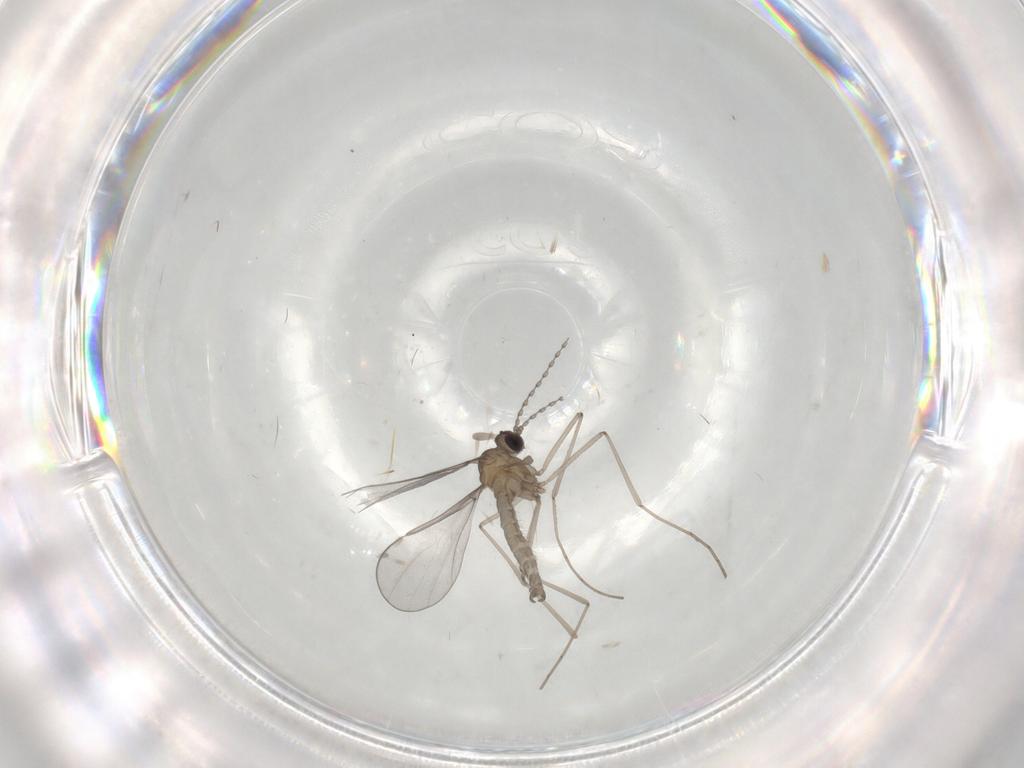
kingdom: Animalia
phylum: Arthropoda
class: Insecta
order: Diptera
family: Cecidomyiidae
